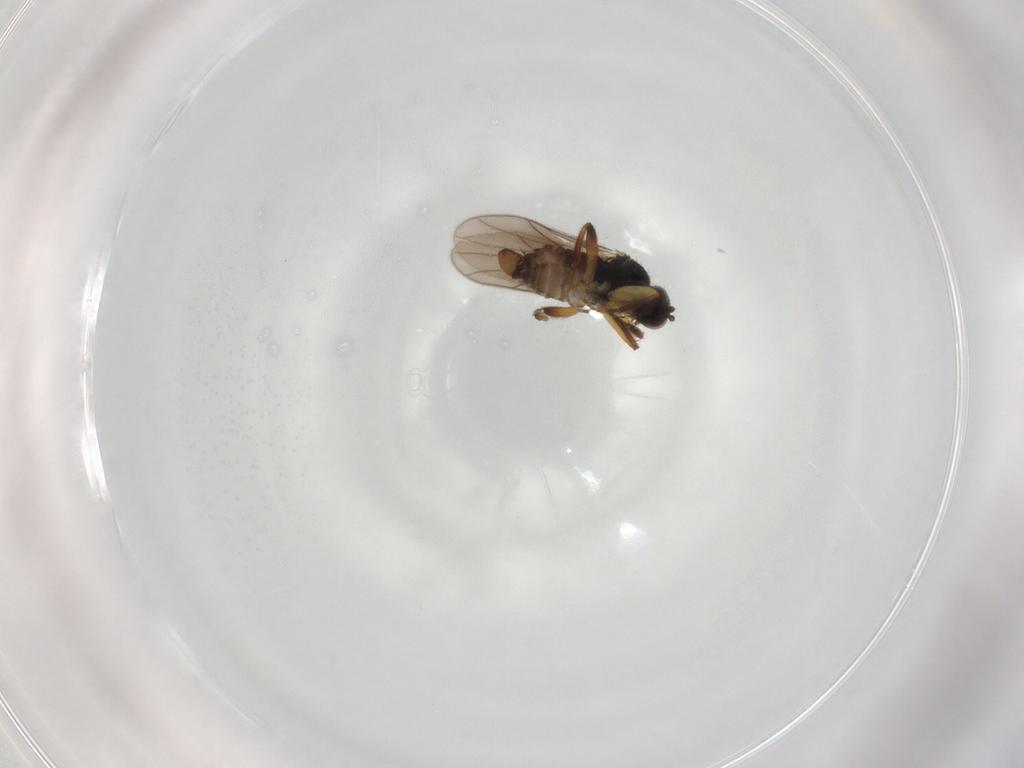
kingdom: Animalia
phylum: Arthropoda
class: Insecta
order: Diptera
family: Hybotidae
